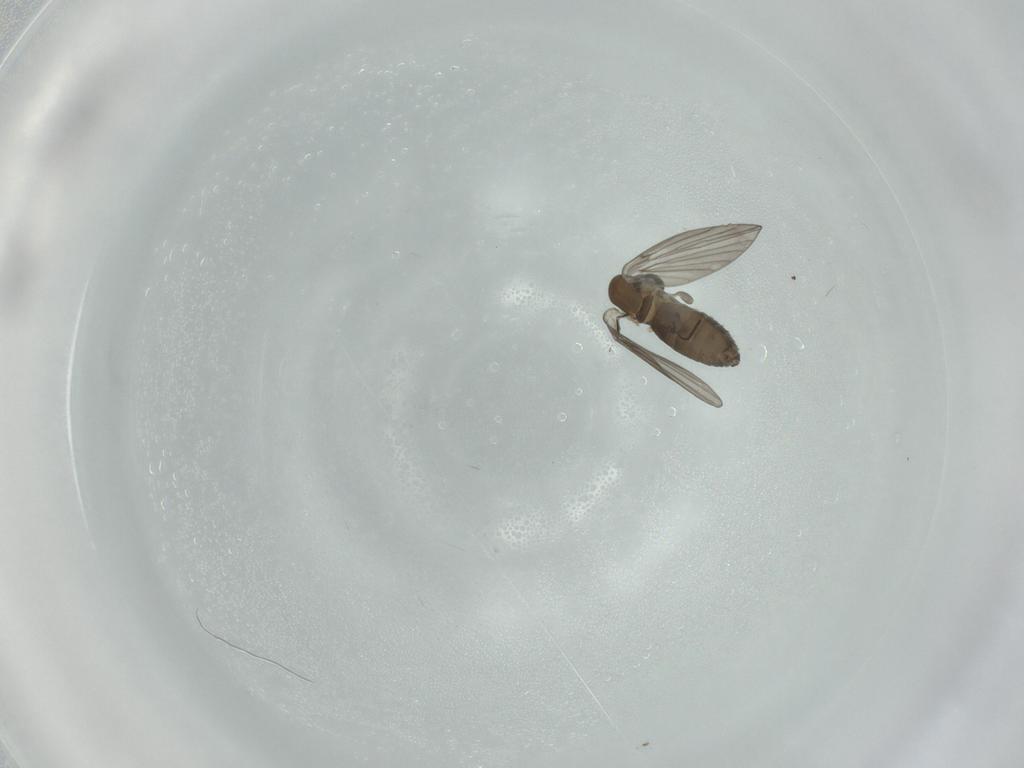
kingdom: Animalia
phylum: Arthropoda
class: Insecta
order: Diptera
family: Psychodidae
